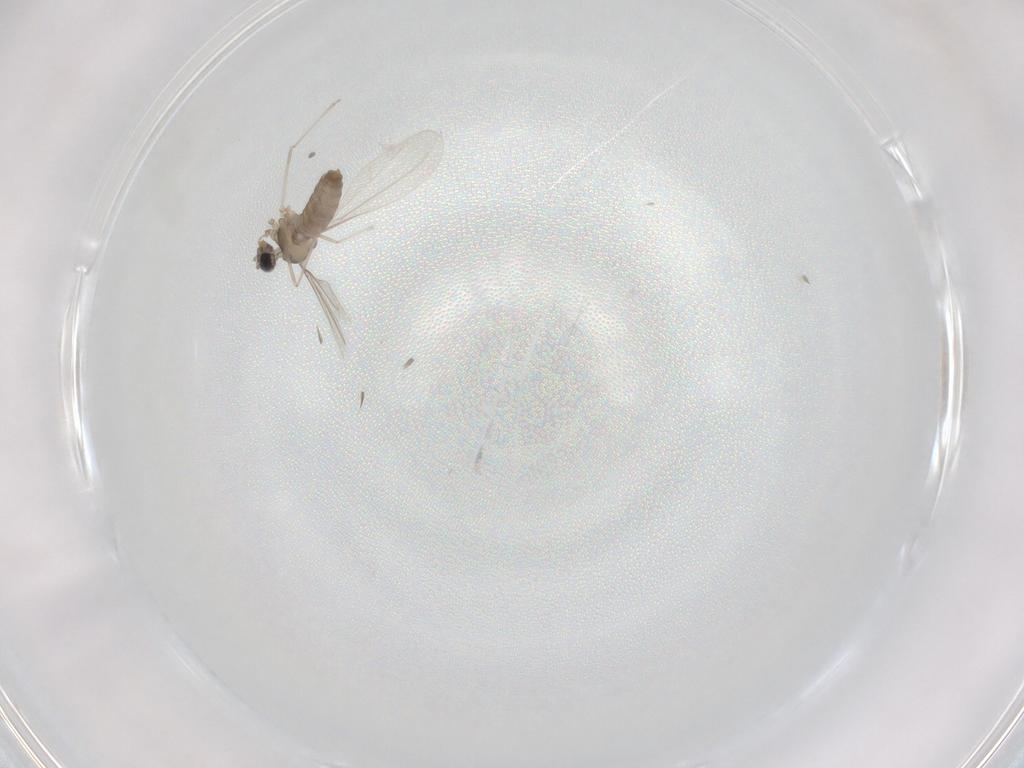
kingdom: Animalia
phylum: Arthropoda
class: Insecta
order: Diptera
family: Cecidomyiidae
